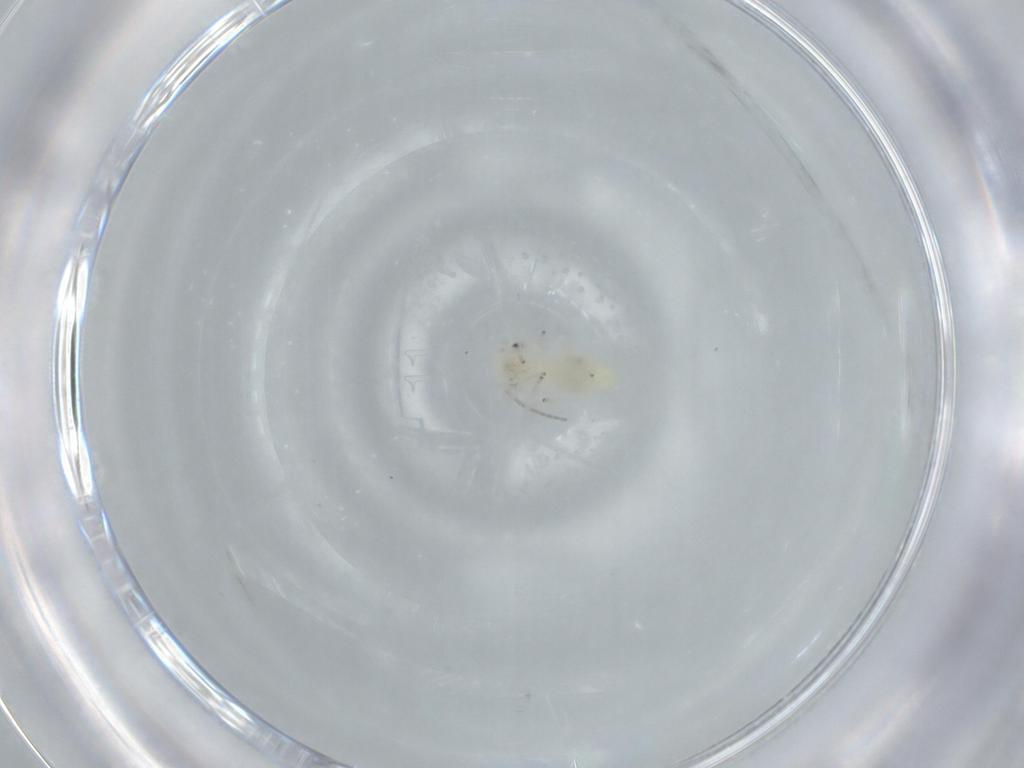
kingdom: Animalia
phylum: Arthropoda
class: Insecta
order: Psocodea
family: Caeciliusidae
